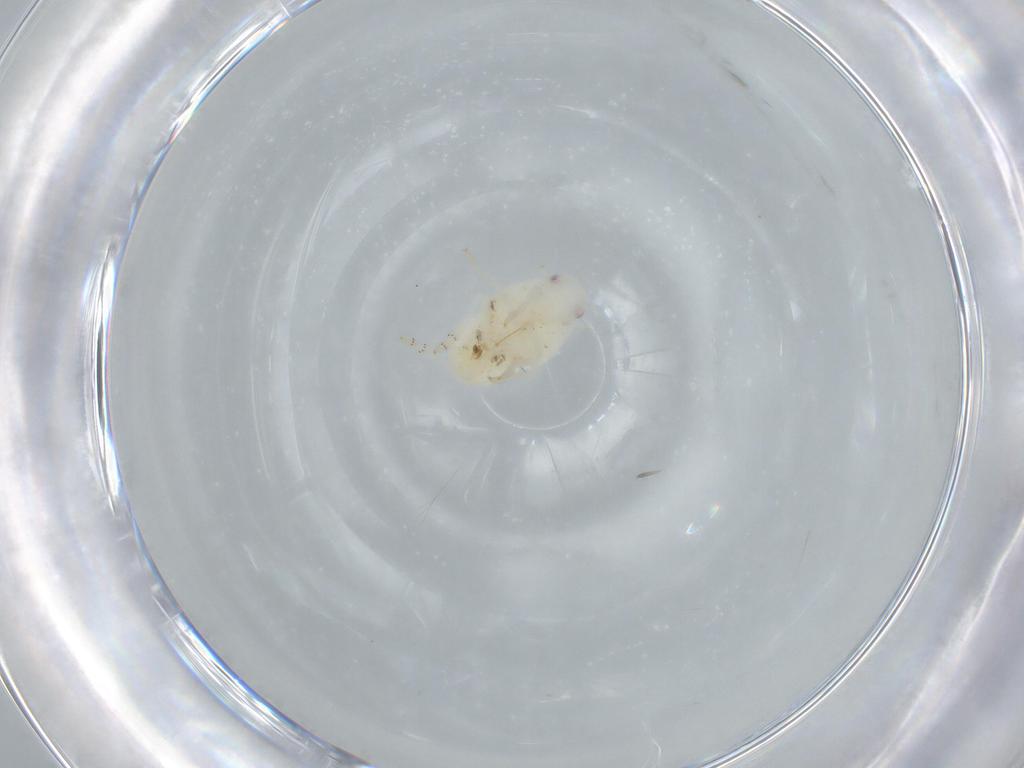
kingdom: Animalia
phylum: Arthropoda
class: Insecta
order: Hemiptera
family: Flatidae
